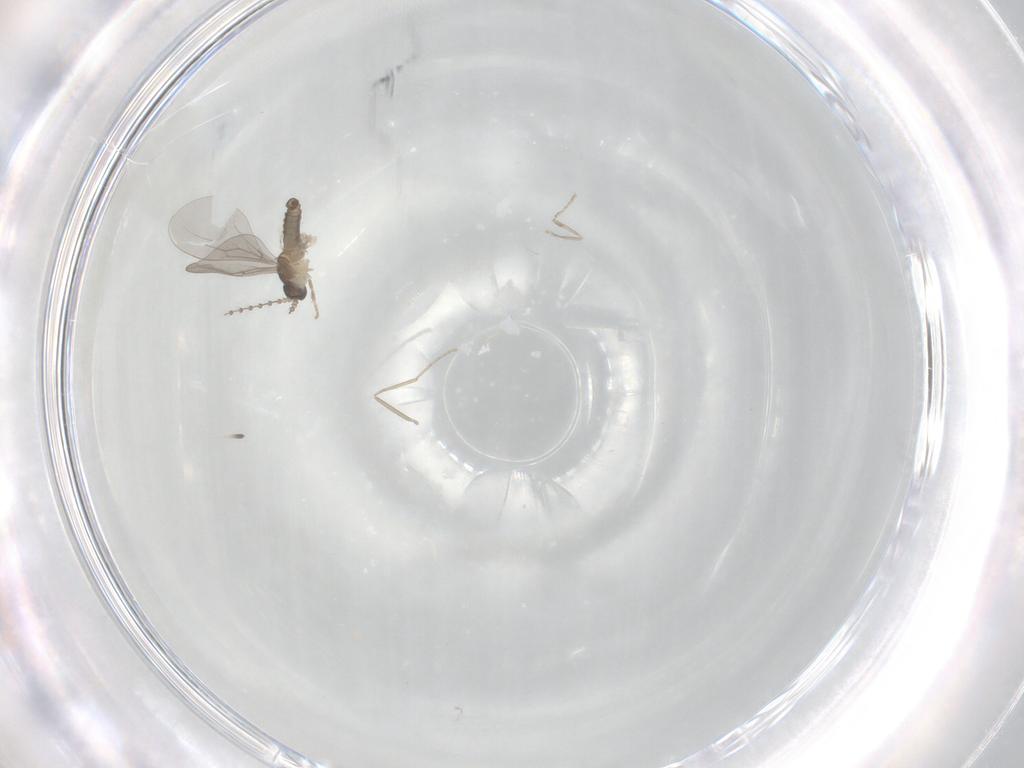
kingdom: Animalia
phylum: Arthropoda
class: Insecta
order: Diptera
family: Cecidomyiidae
